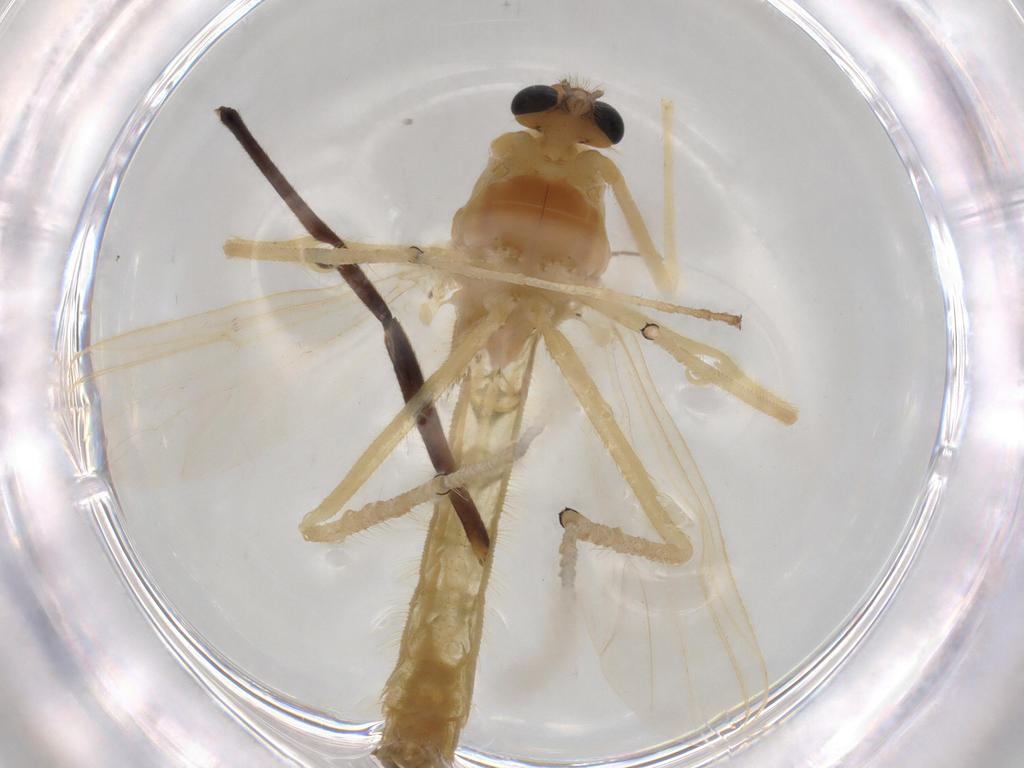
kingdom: Animalia
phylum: Arthropoda
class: Insecta
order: Diptera
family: Chironomidae
